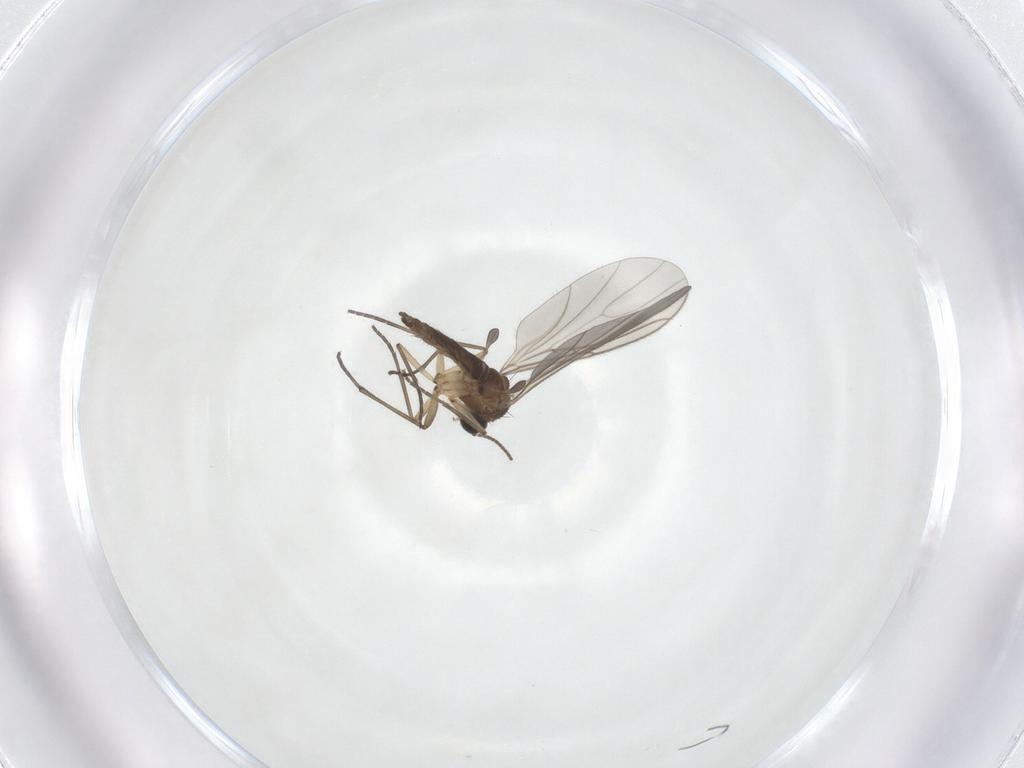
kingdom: Animalia
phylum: Arthropoda
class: Insecta
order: Diptera
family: Sciaridae
